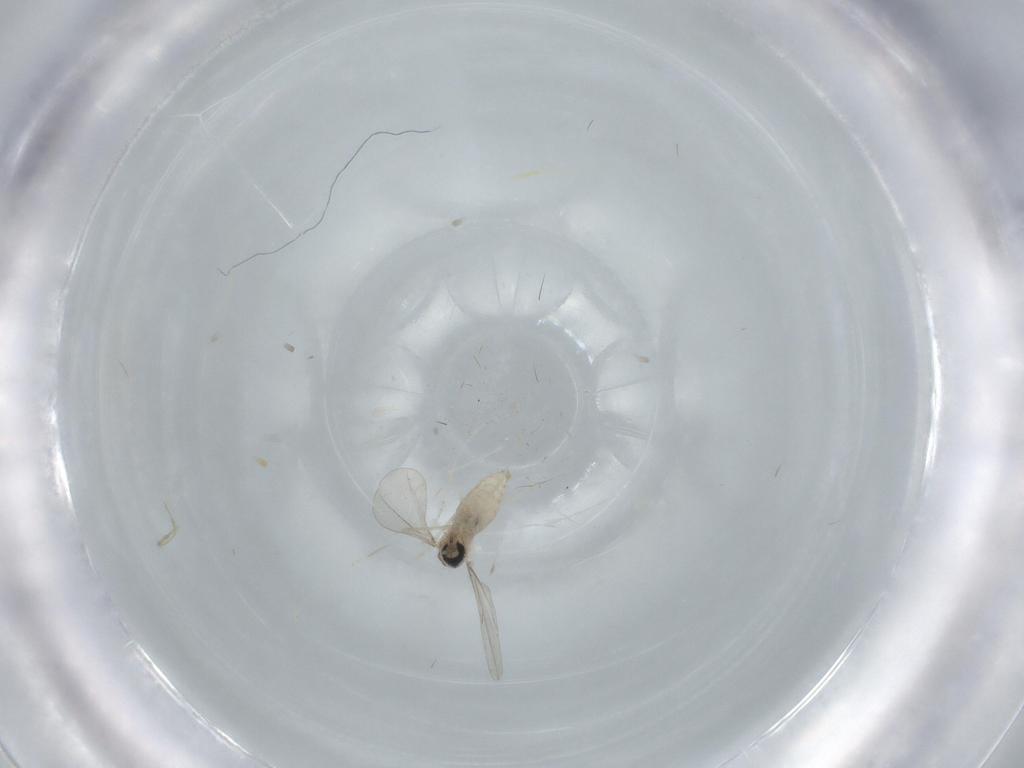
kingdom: Animalia
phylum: Arthropoda
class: Insecta
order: Diptera
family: Cecidomyiidae
